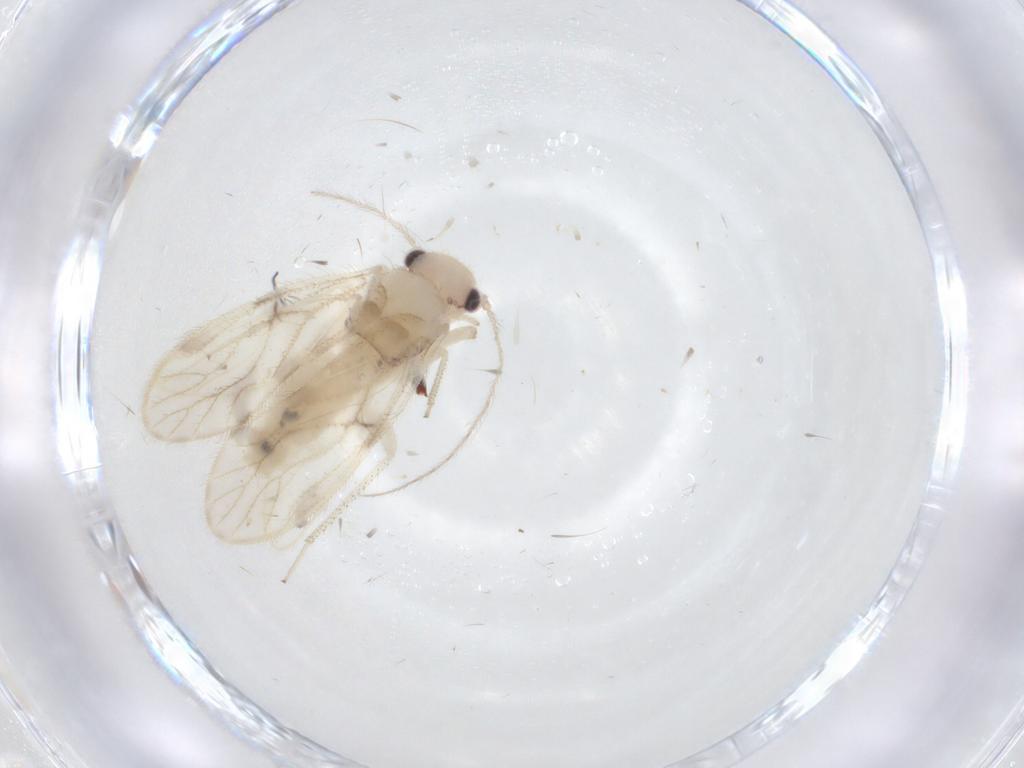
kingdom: Animalia
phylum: Arthropoda
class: Insecta
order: Psocodea
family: Pseudocaeciliidae
